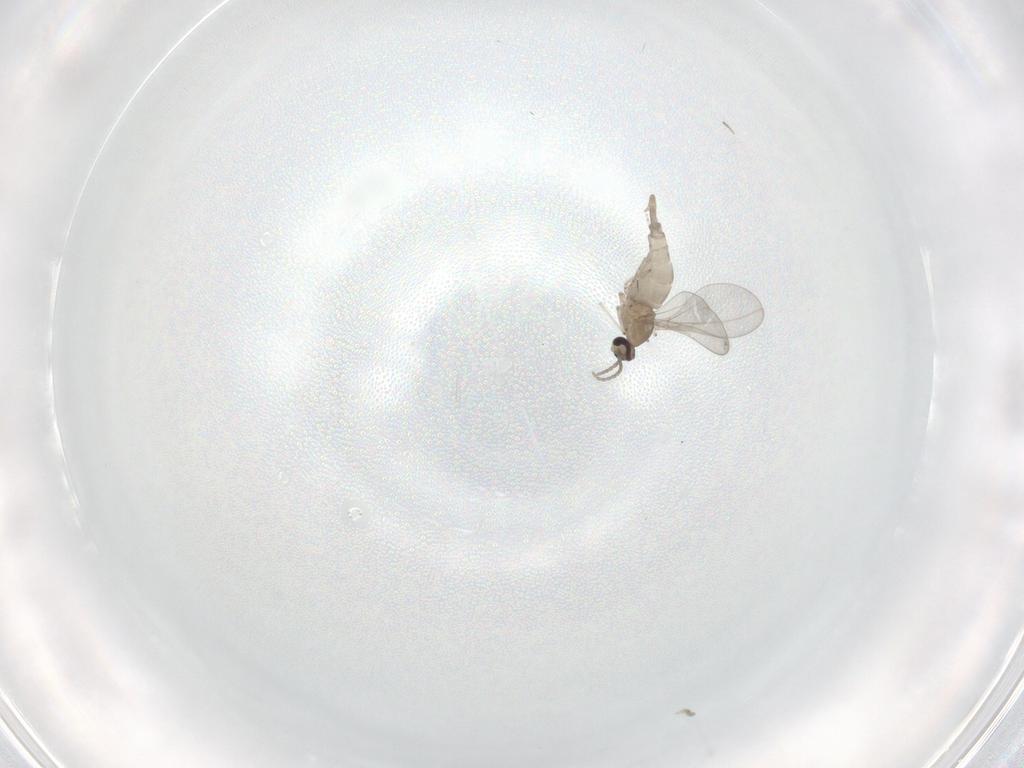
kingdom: Animalia
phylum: Arthropoda
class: Insecta
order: Diptera
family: Cecidomyiidae
